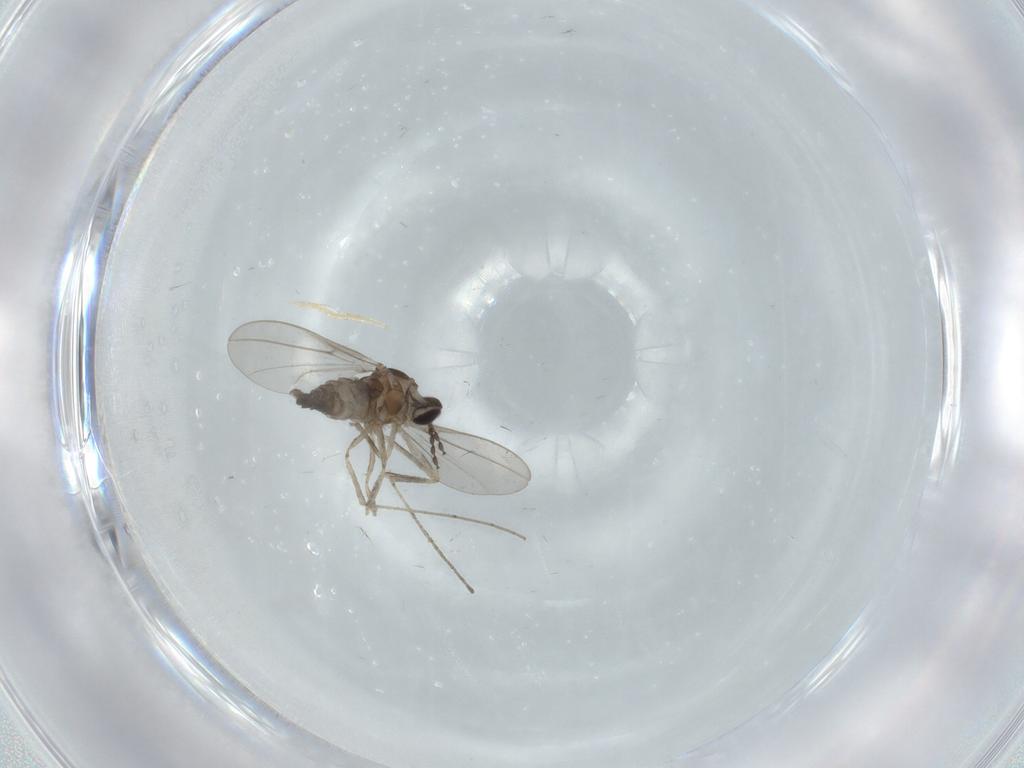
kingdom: Animalia
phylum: Arthropoda
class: Insecta
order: Diptera
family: Cecidomyiidae
